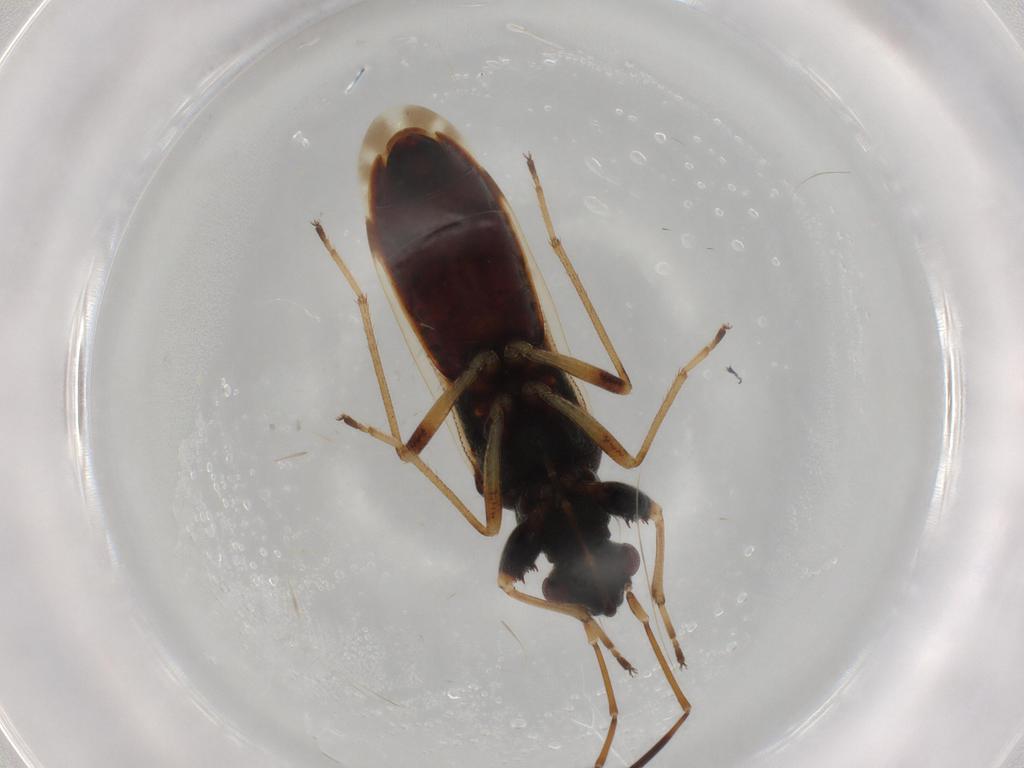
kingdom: Animalia
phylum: Arthropoda
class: Insecta
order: Hemiptera
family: Rhyparochromidae
